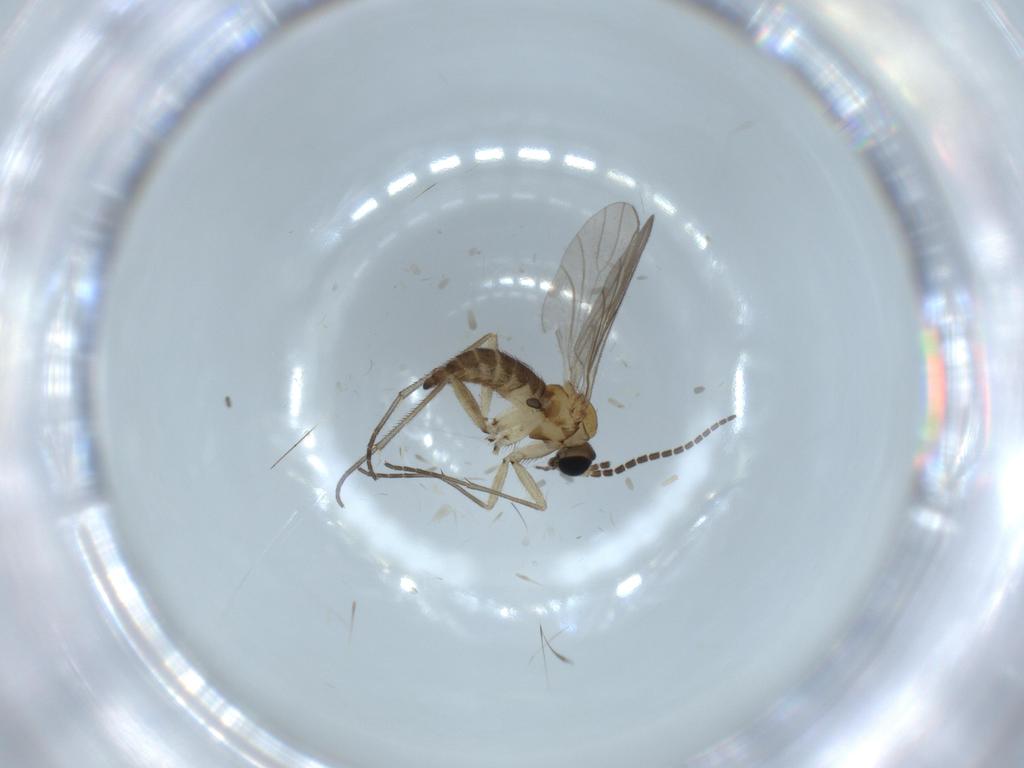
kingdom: Animalia
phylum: Arthropoda
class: Insecta
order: Diptera
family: Sciaridae
